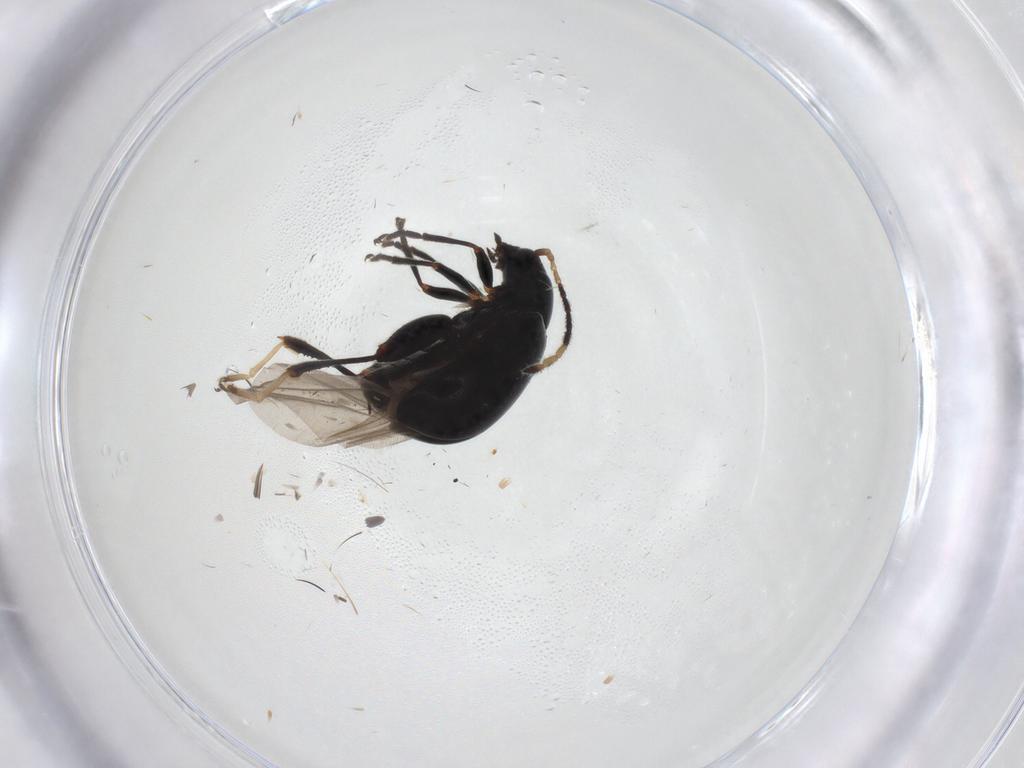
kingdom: Animalia
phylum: Arthropoda
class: Insecta
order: Coleoptera
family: Chrysomelidae
